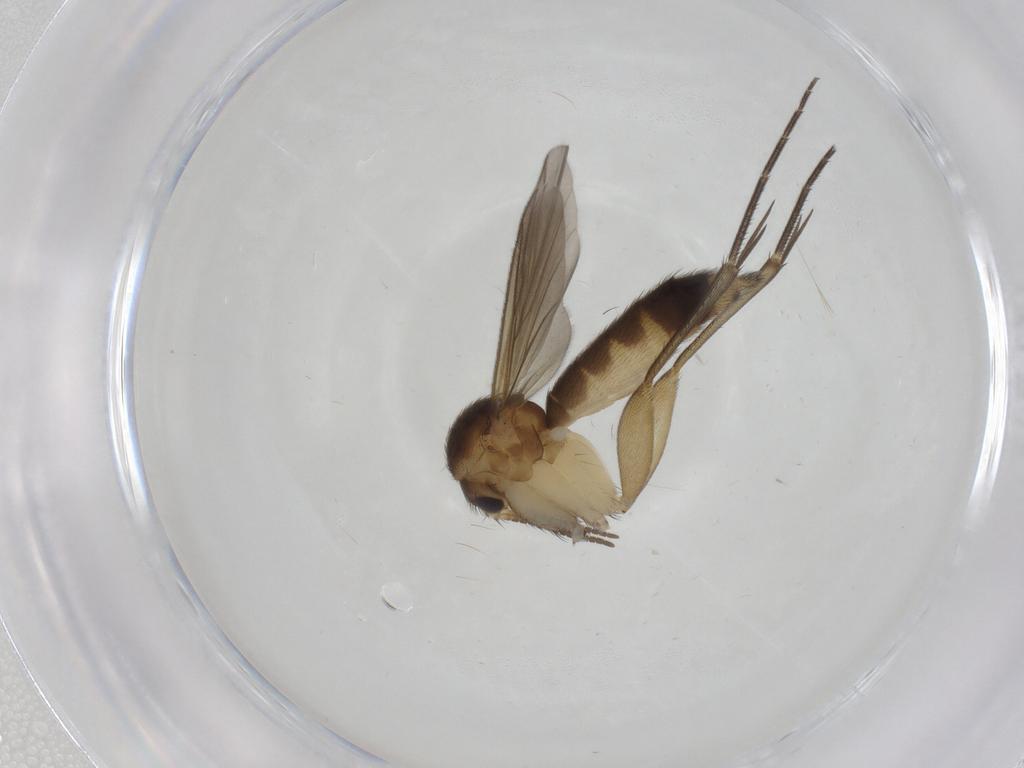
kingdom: Animalia
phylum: Arthropoda
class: Insecta
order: Diptera
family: Mycetophilidae
